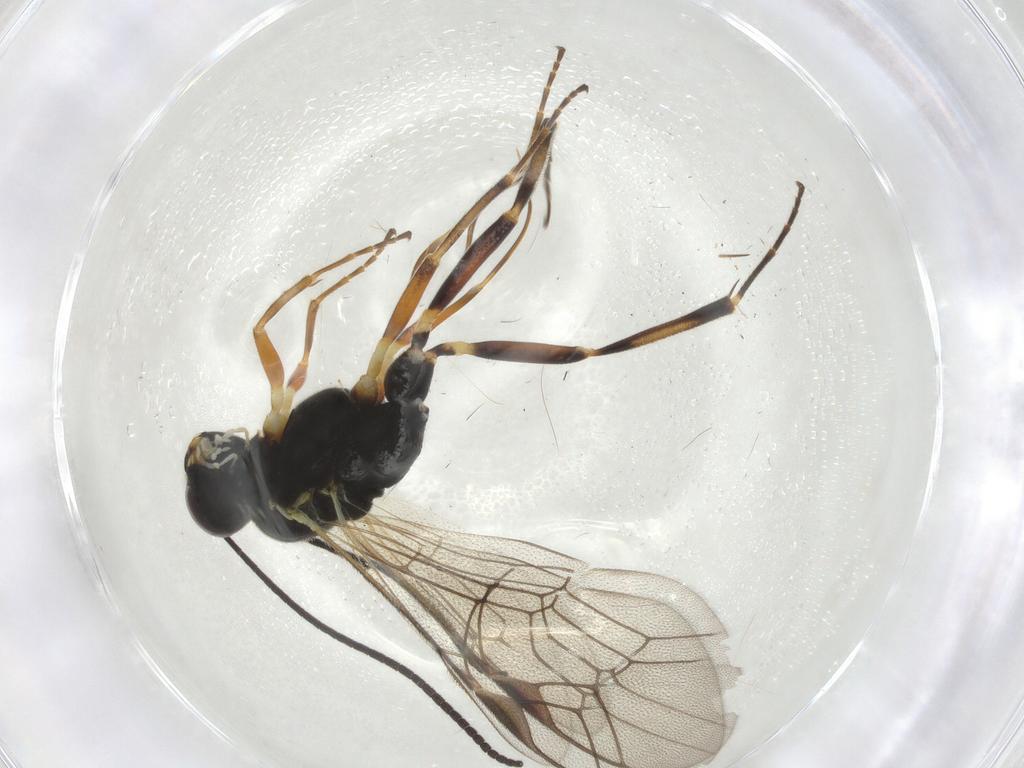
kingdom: Animalia
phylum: Arthropoda
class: Insecta
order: Hymenoptera
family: Ichneumonidae
